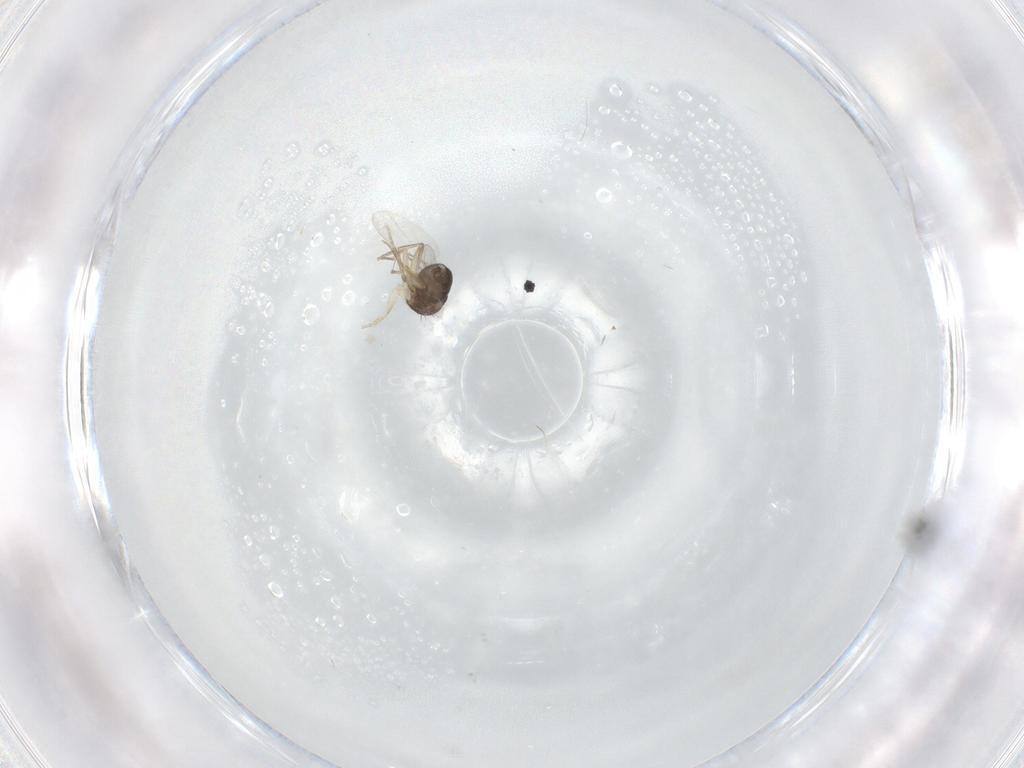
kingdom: Animalia
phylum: Arthropoda
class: Insecta
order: Diptera
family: Phoridae
